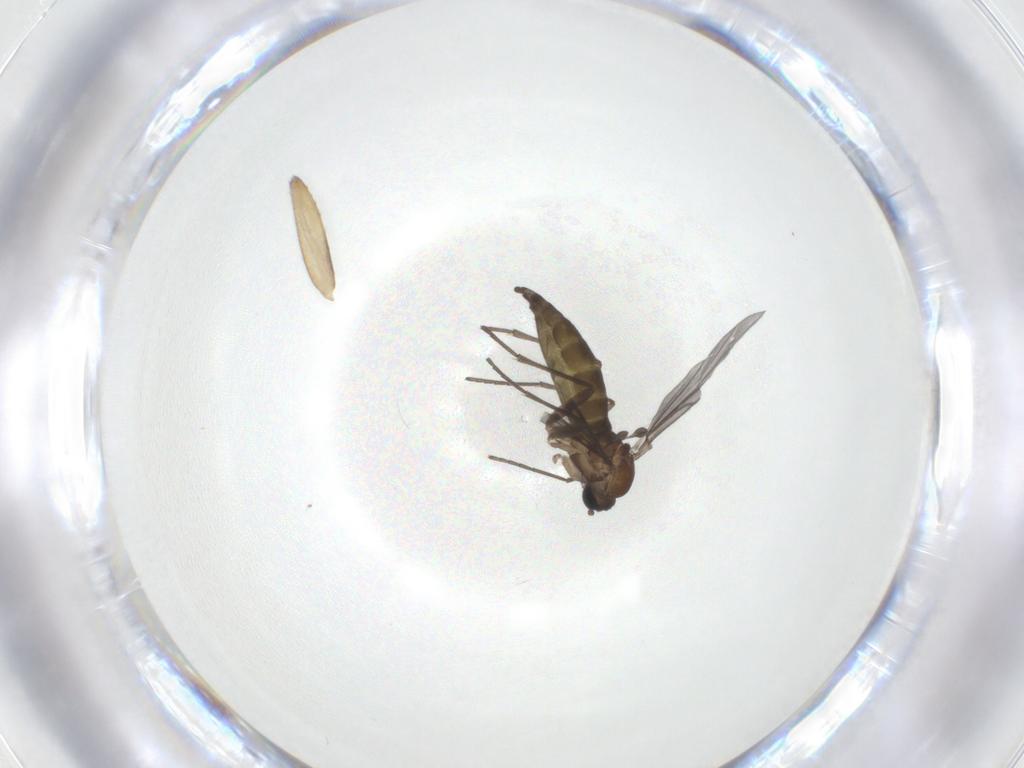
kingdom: Animalia
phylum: Arthropoda
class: Insecta
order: Diptera
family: Sciaridae
